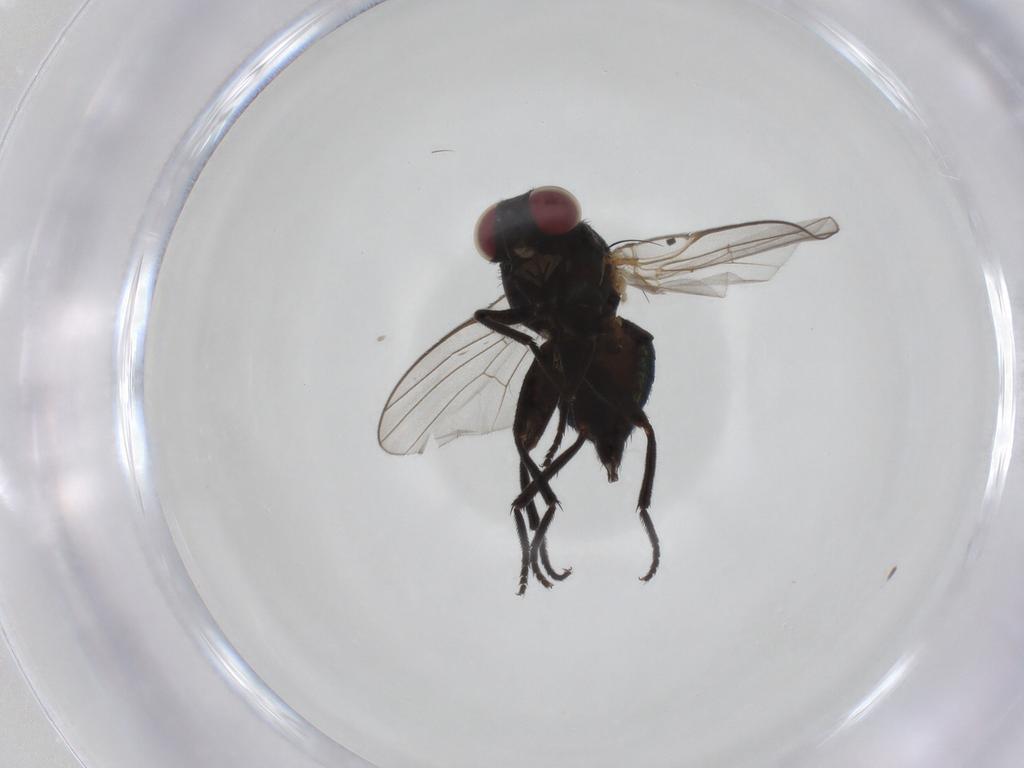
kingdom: Animalia
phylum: Arthropoda
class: Insecta
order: Diptera
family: Agromyzidae
